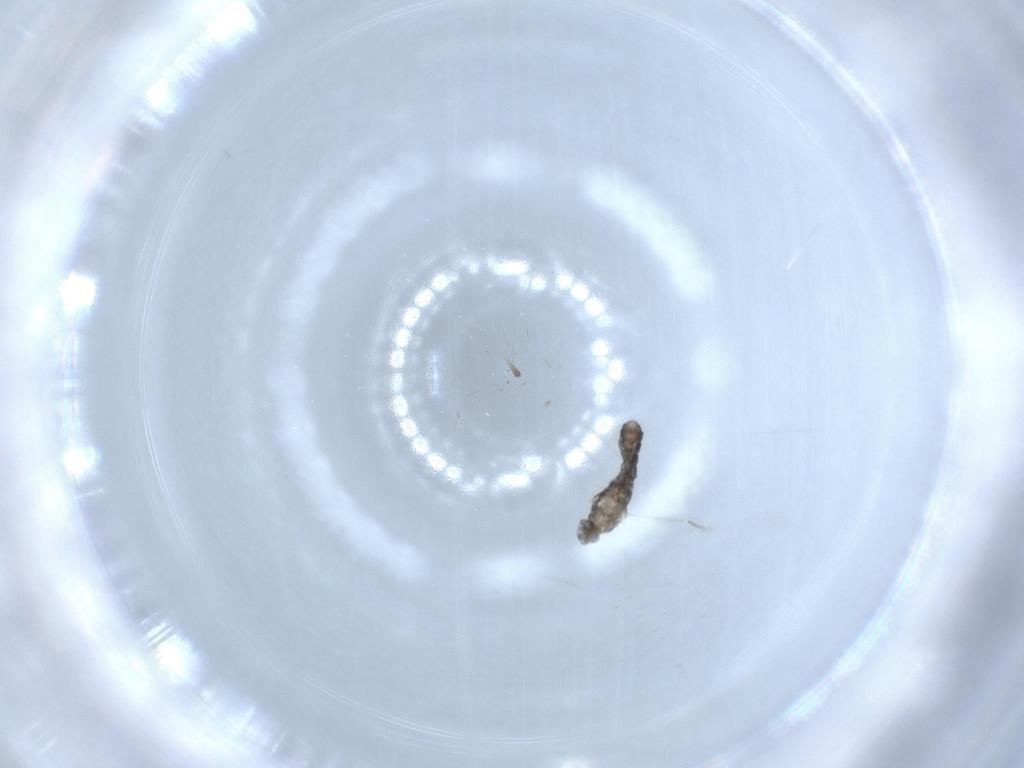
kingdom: Animalia
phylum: Arthropoda
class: Insecta
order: Diptera
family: Cecidomyiidae
